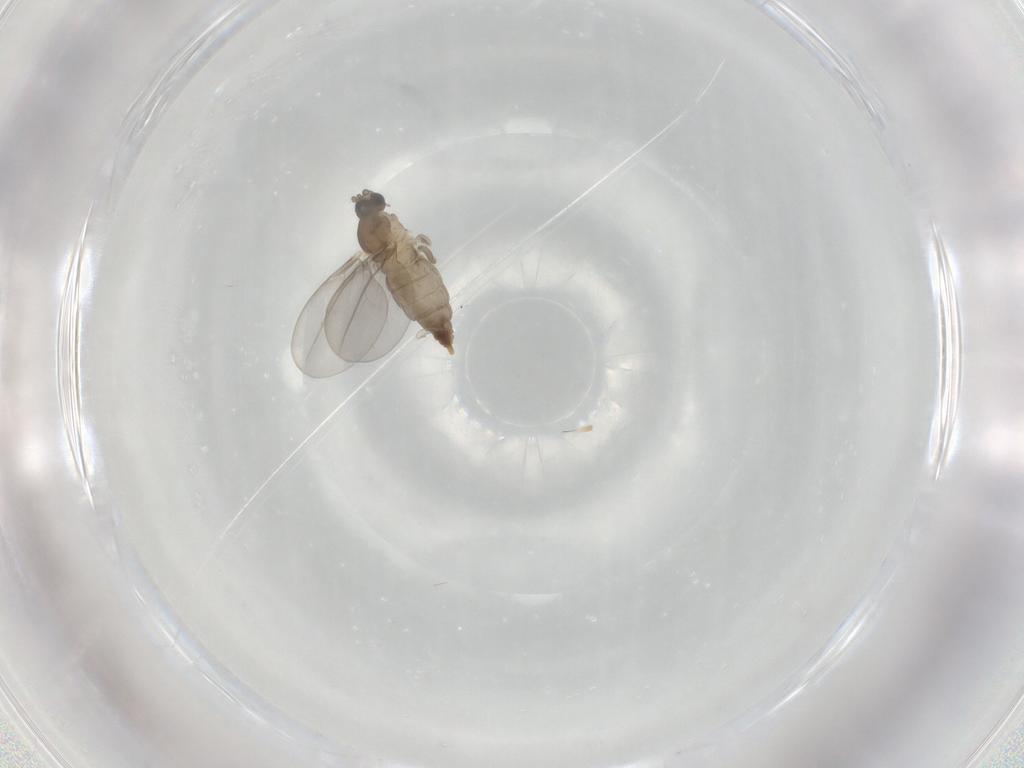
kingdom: Animalia
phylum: Arthropoda
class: Insecta
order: Diptera
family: Cecidomyiidae
